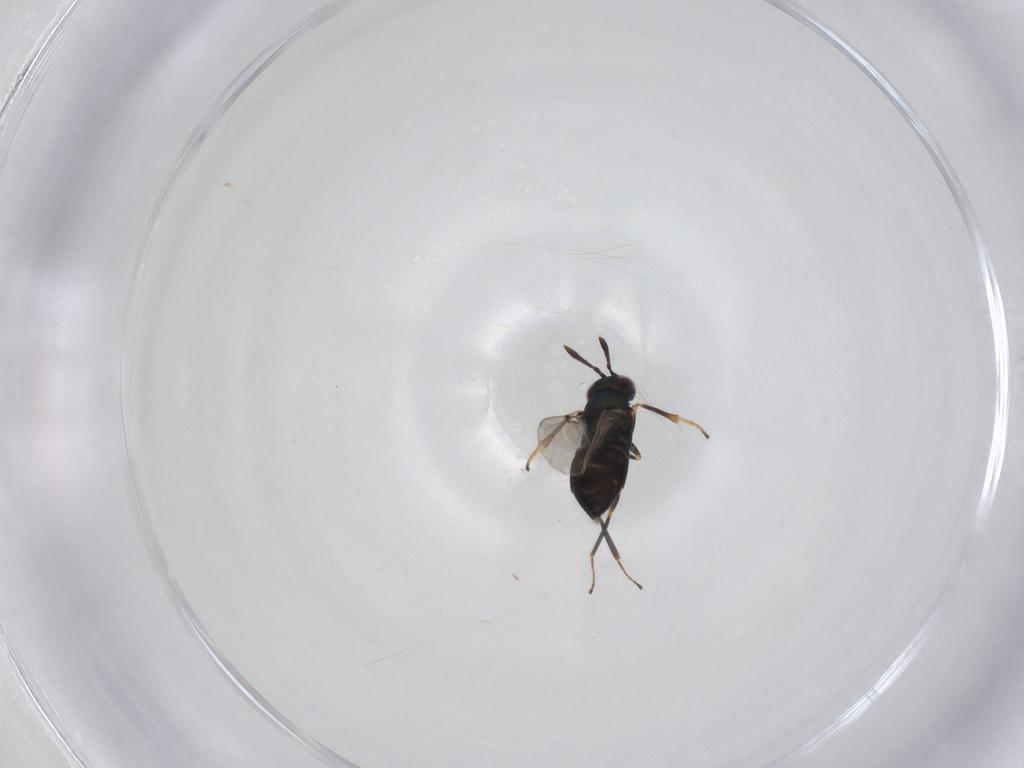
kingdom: Animalia
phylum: Arthropoda
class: Insecta
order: Hymenoptera
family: Encyrtidae
